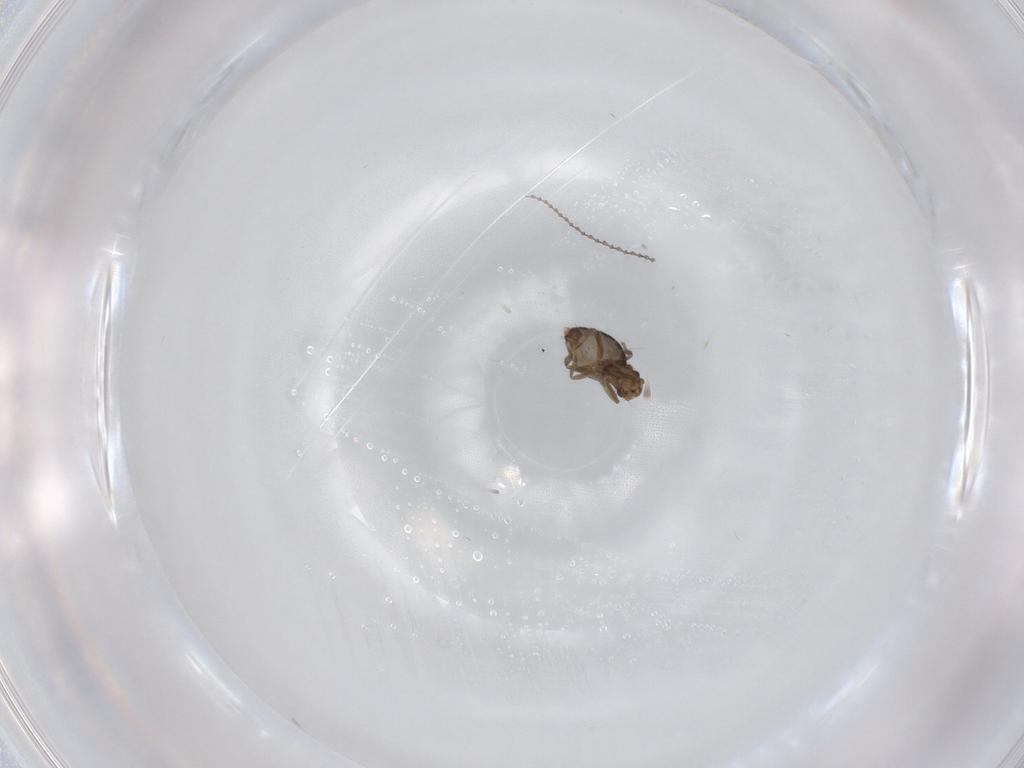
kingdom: Animalia
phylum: Arthropoda
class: Insecta
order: Diptera
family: Phoridae
